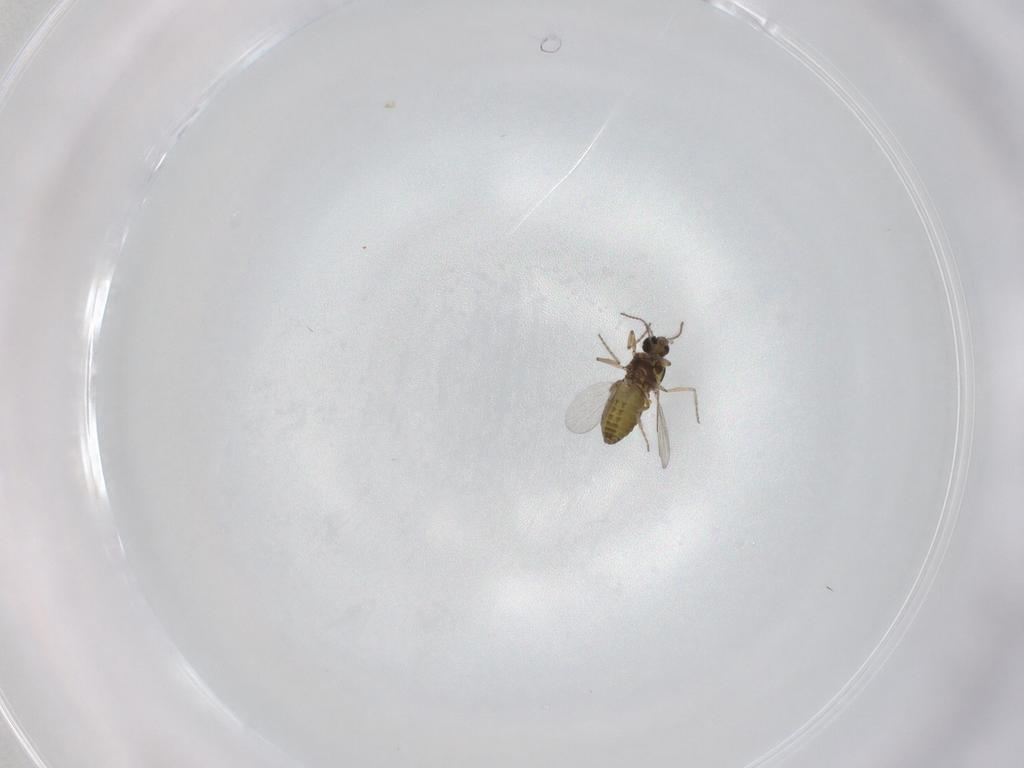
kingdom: Animalia
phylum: Arthropoda
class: Insecta
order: Diptera
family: Ceratopogonidae
